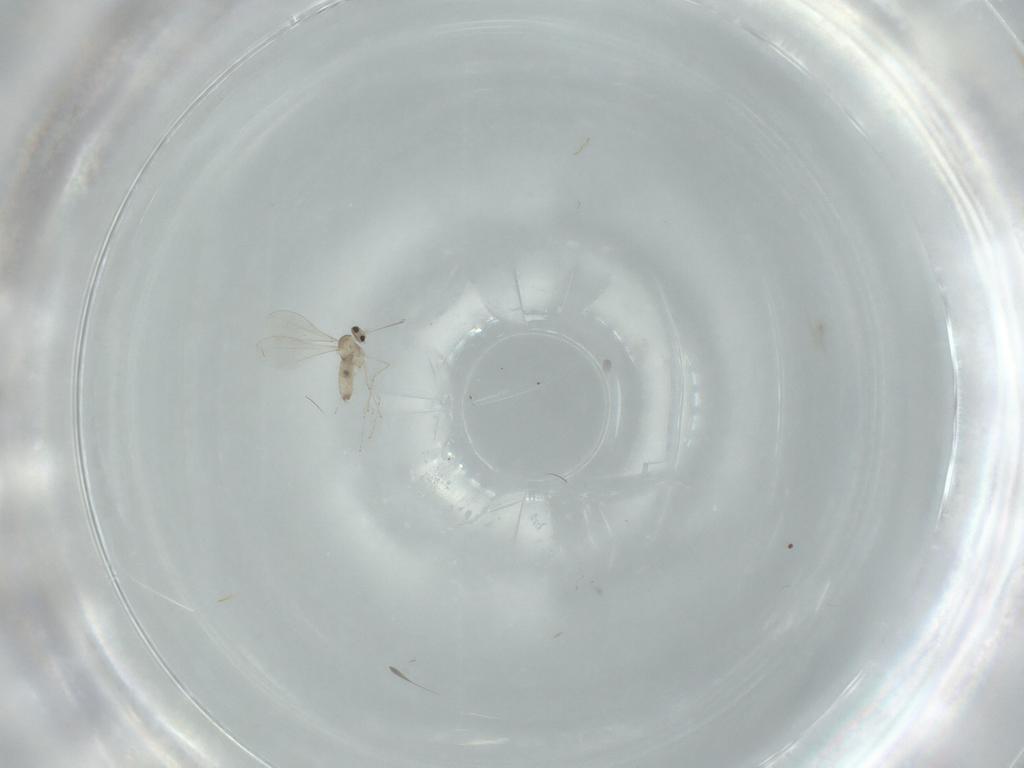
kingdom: Animalia
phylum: Arthropoda
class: Insecta
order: Diptera
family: Cecidomyiidae
